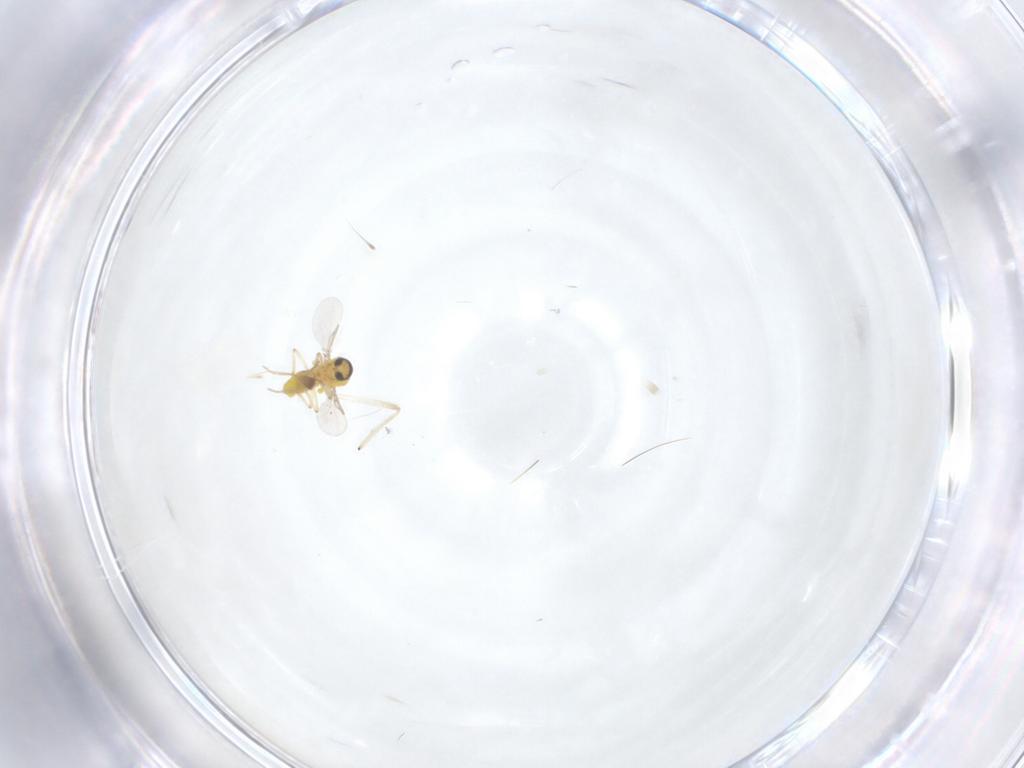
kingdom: Animalia
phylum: Arthropoda
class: Insecta
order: Diptera
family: Chironomidae
